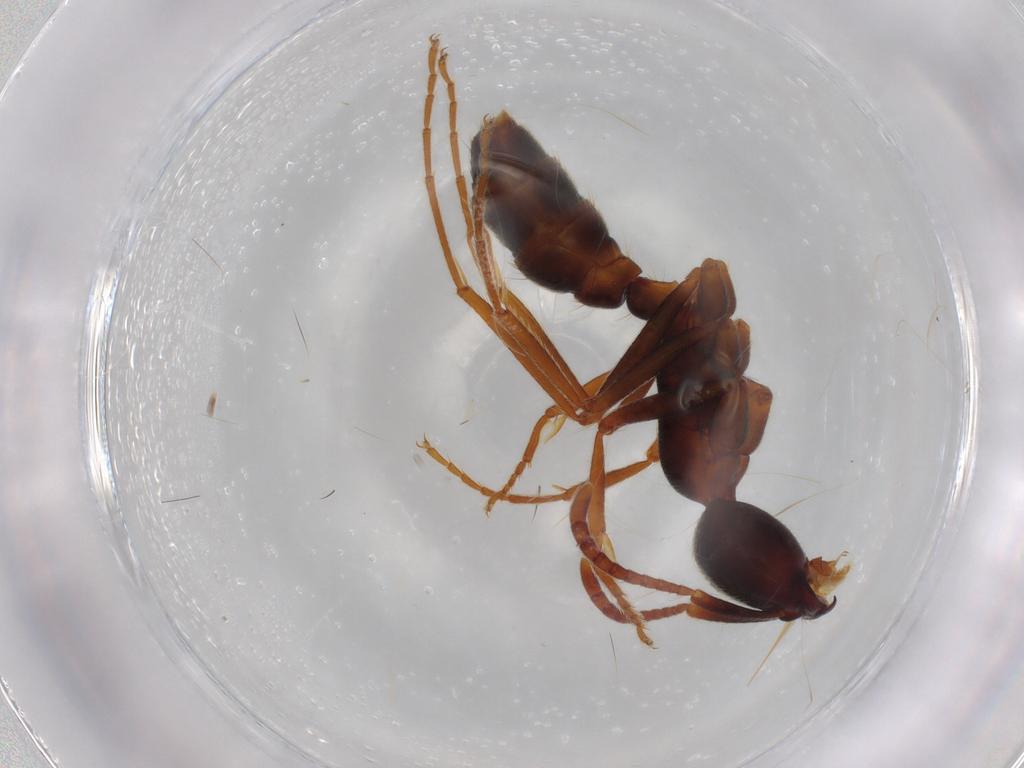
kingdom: Animalia
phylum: Arthropoda
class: Insecta
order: Hymenoptera
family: Formicidae
